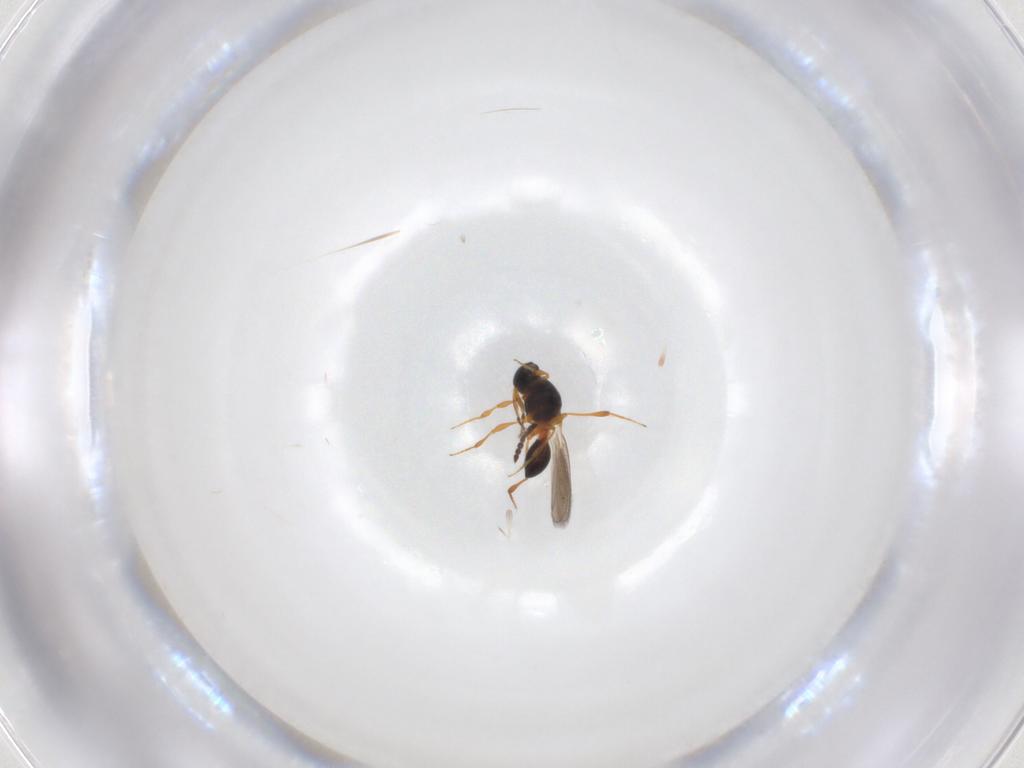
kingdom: Animalia
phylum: Arthropoda
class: Insecta
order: Hymenoptera
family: Platygastridae
